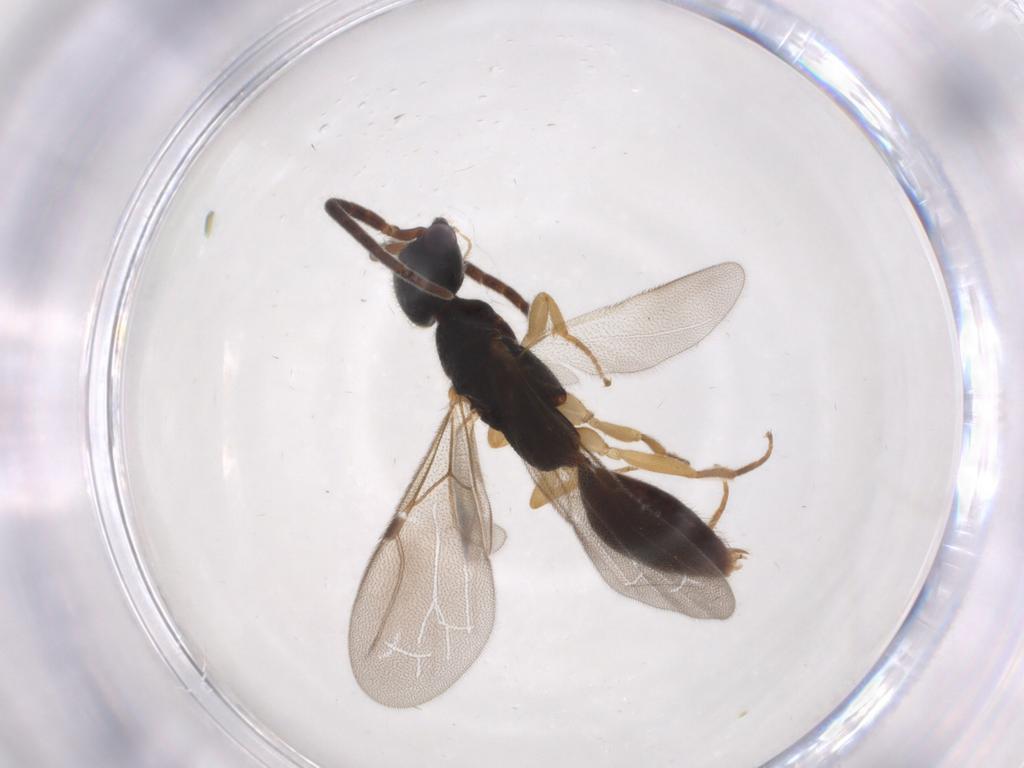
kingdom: Animalia
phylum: Arthropoda
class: Insecta
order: Hymenoptera
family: Bethylidae
